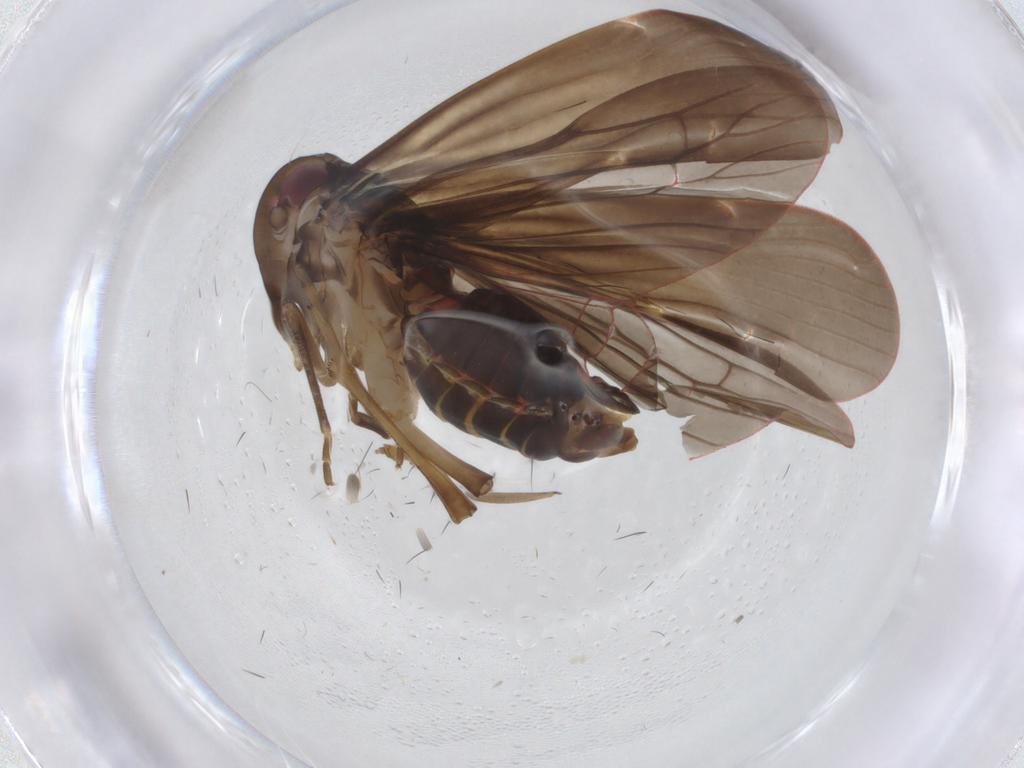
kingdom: Animalia
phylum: Arthropoda
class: Insecta
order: Hemiptera
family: Achilidae
